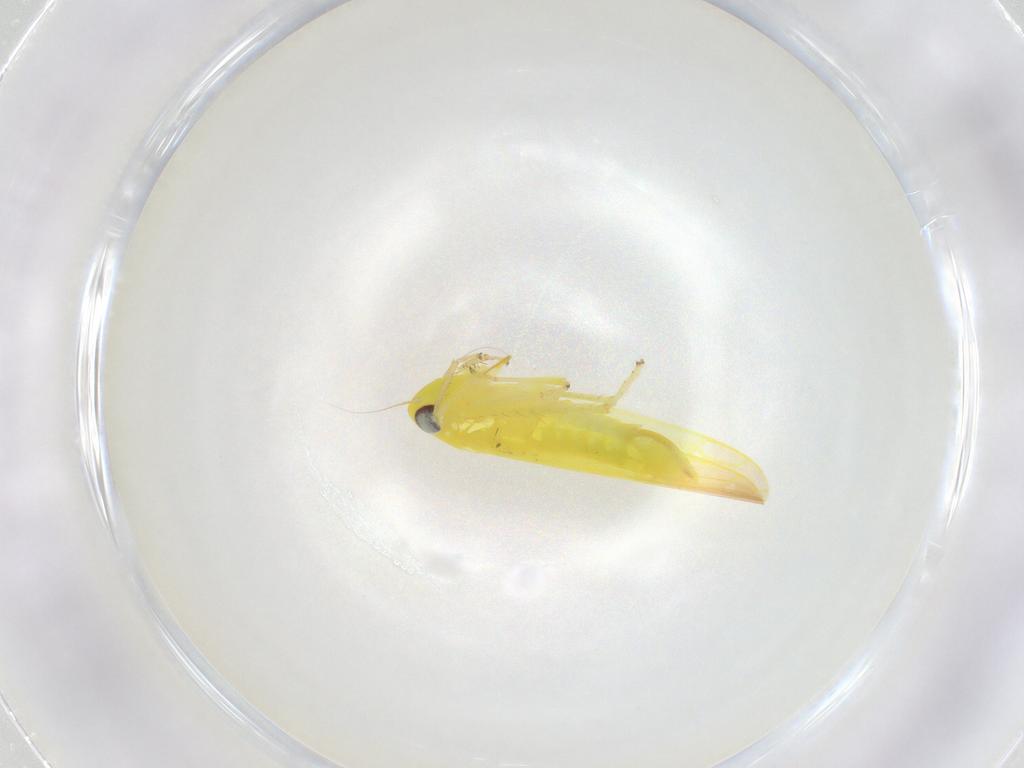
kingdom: Animalia
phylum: Arthropoda
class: Insecta
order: Hemiptera
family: Cicadellidae
